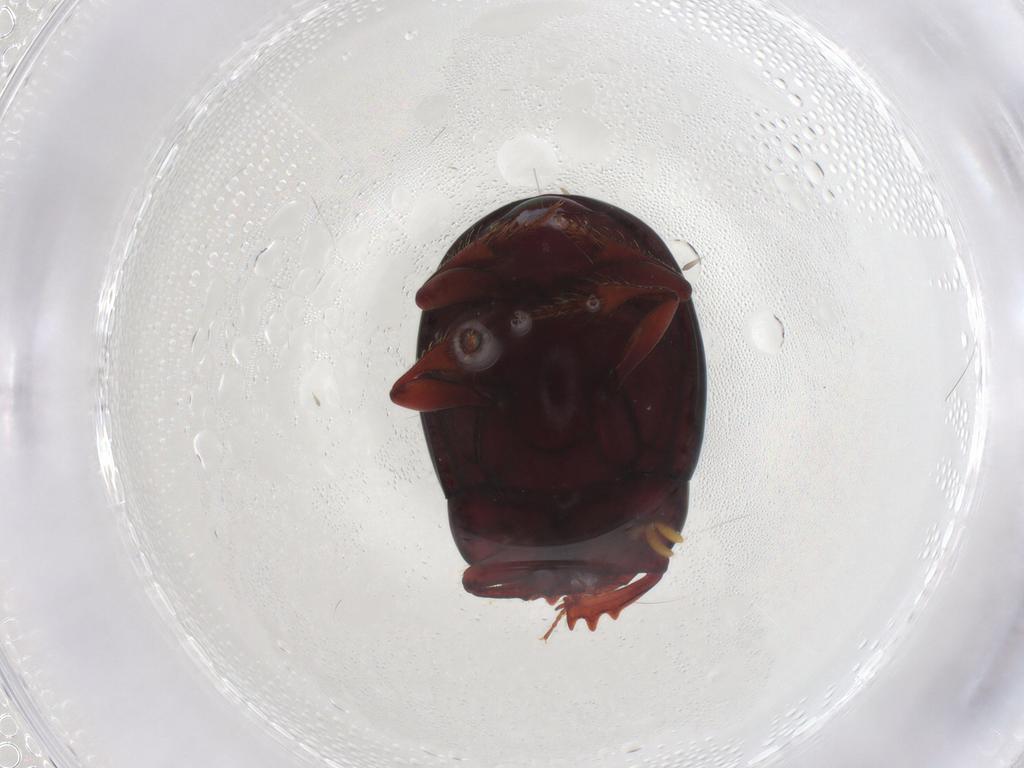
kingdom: Animalia
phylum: Arthropoda
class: Insecta
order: Coleoptera
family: Scarabaeidae
